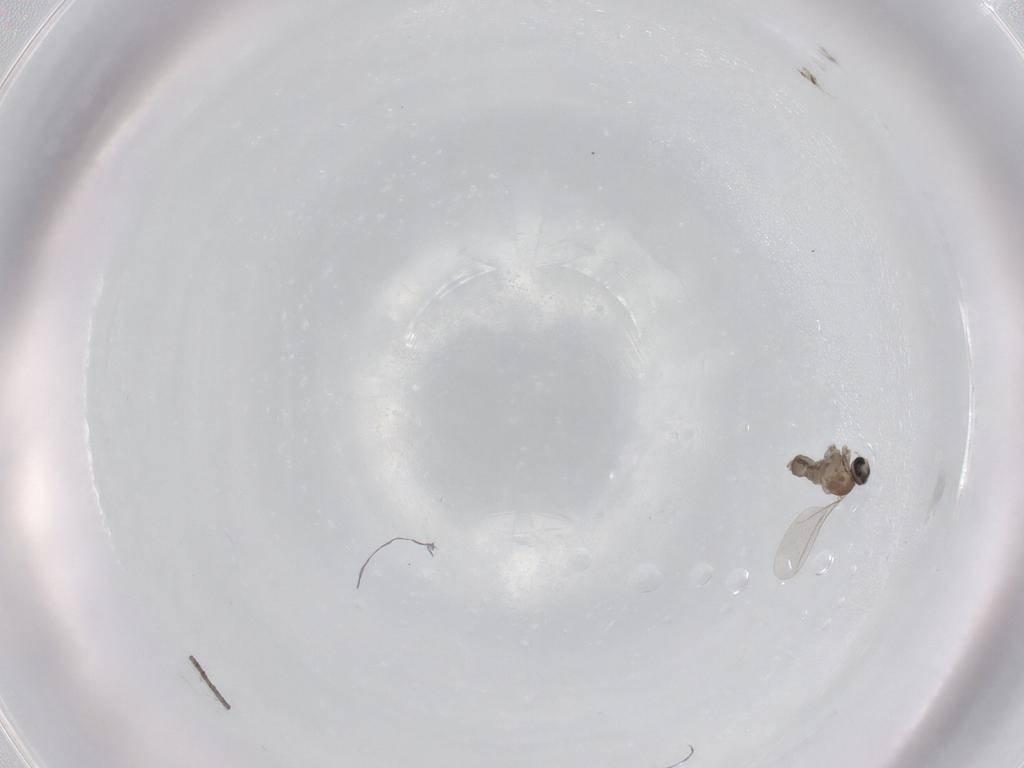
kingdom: Animalia
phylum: Arthropoda
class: Insecta
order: Diptera
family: Cecidomyiidae
